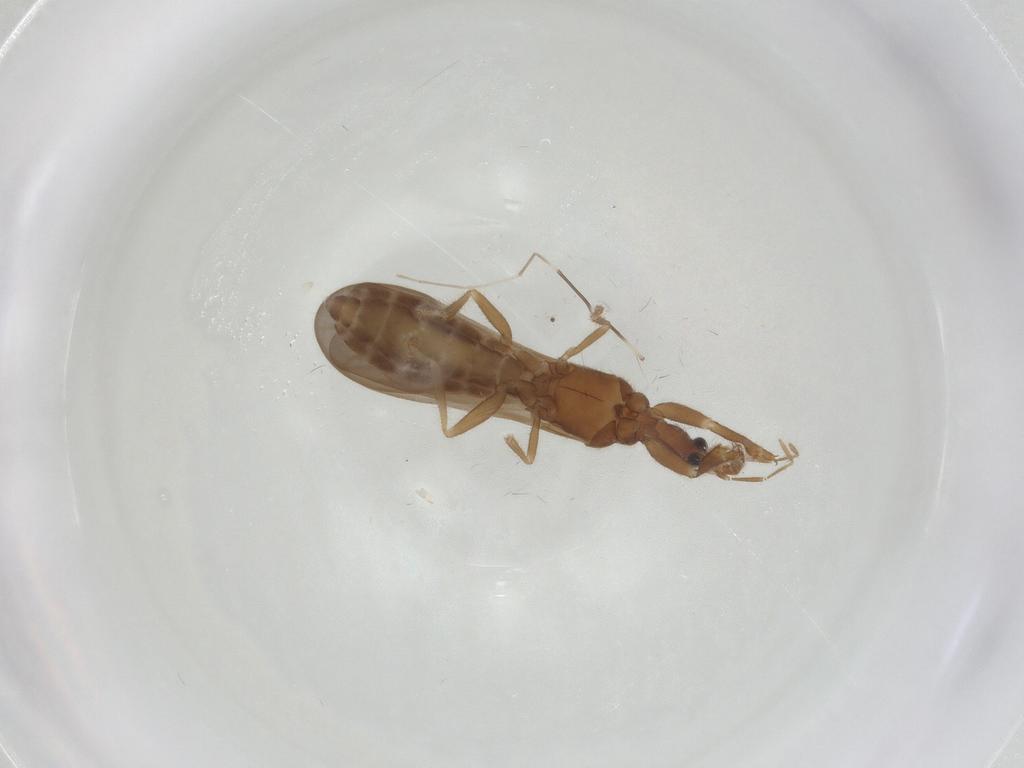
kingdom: Animalia
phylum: Arthropoda
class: Insecta
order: Hemiptera
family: Enicocephalidae
